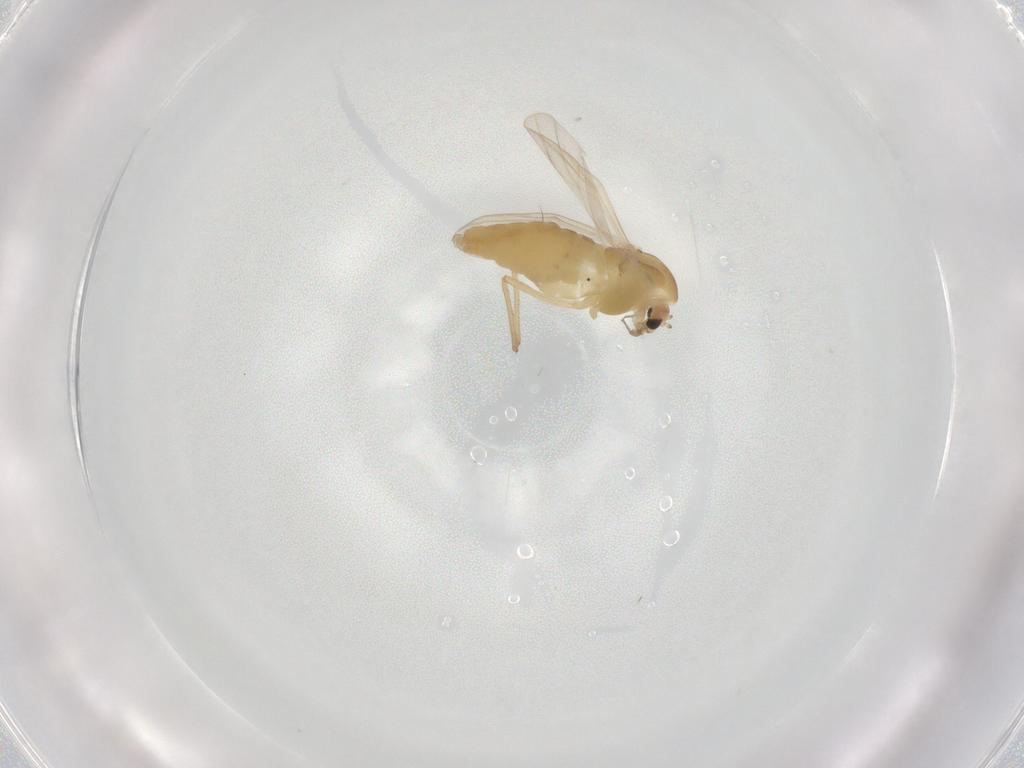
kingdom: Animalia
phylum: Arthropoda
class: Insecta
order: Diptera
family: Chironomidae
